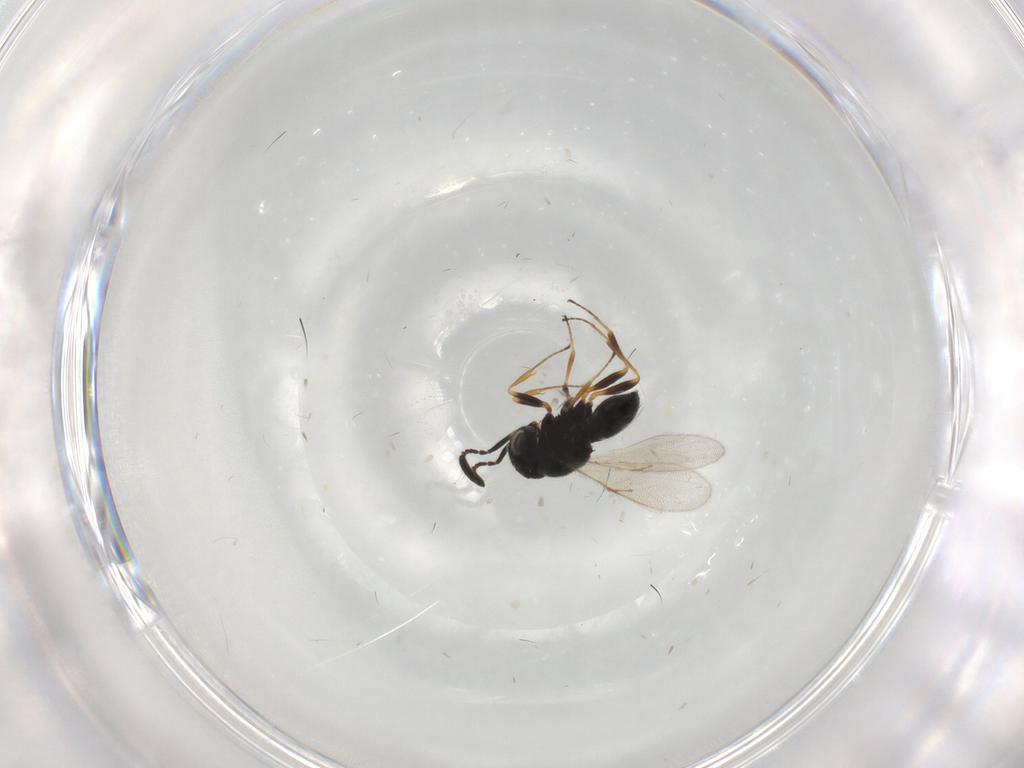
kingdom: Animalia
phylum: Arthropoda
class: Insecta
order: Hymenoptera
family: Scelionidae
